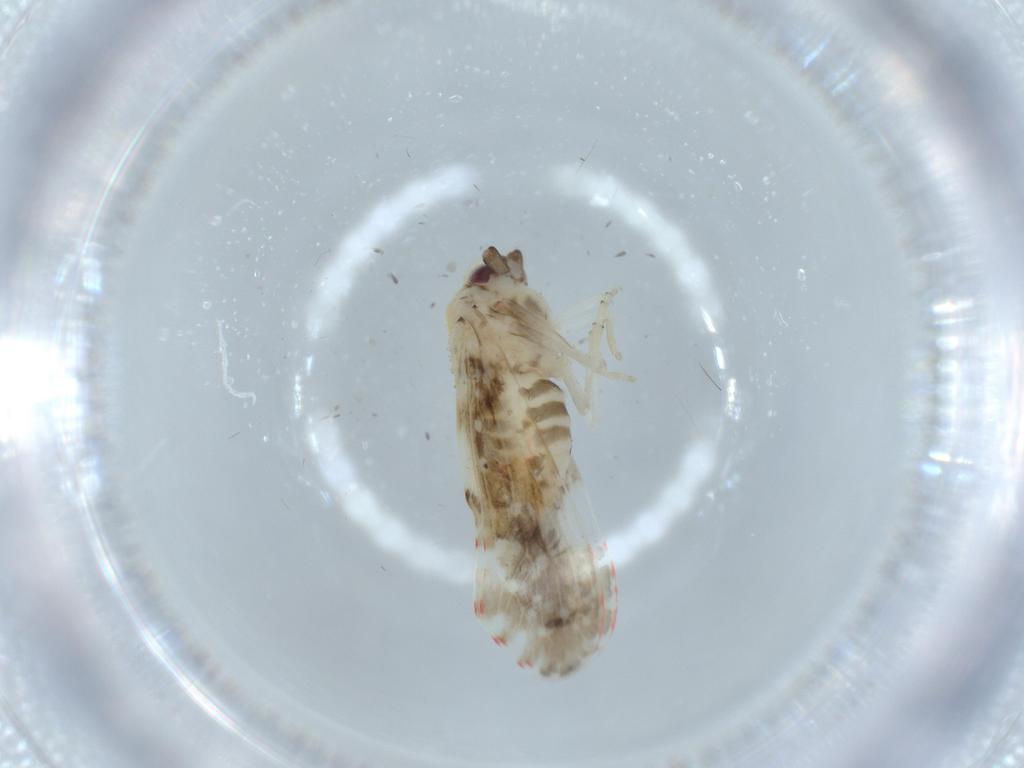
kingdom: Animalia
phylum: Arthropoda
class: Insecta
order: Hemiptera
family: Derbidae
